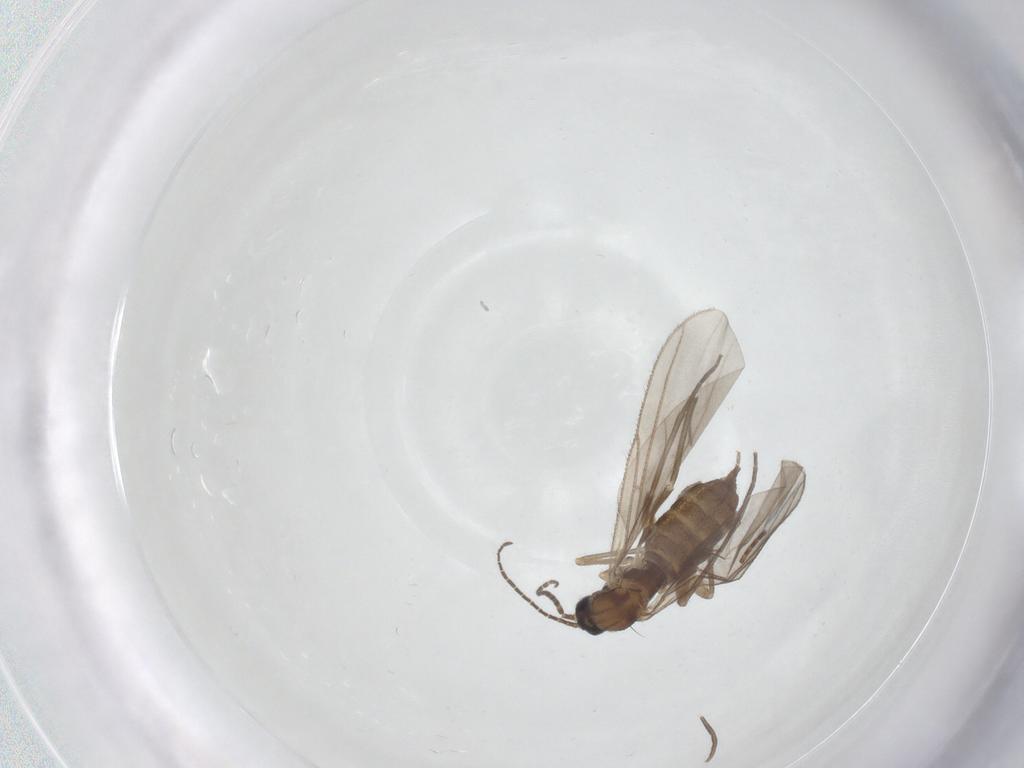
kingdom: Animalia
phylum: Arthropoda
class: Insecta
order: Diptera
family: Sciaridae
